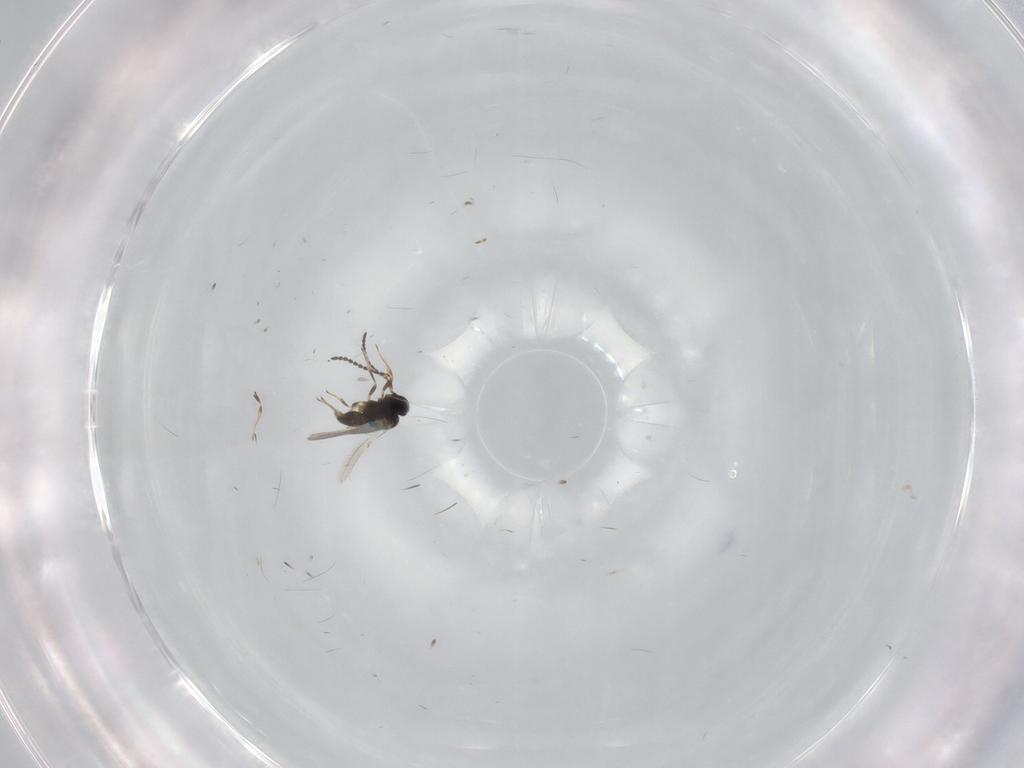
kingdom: Animalia
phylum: Arthropoda
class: Insecta
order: Hymenoptera
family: Scelionidae
